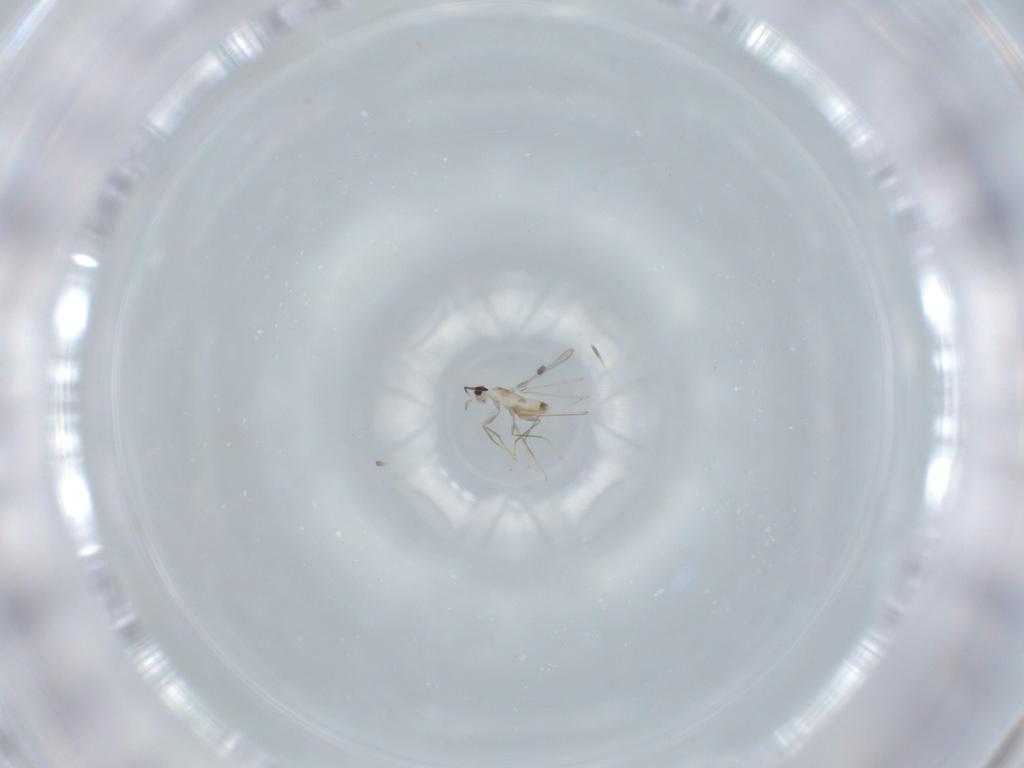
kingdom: Animalia
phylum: Arthropoda
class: Insecta
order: Hymenoptera
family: Mymaridae
